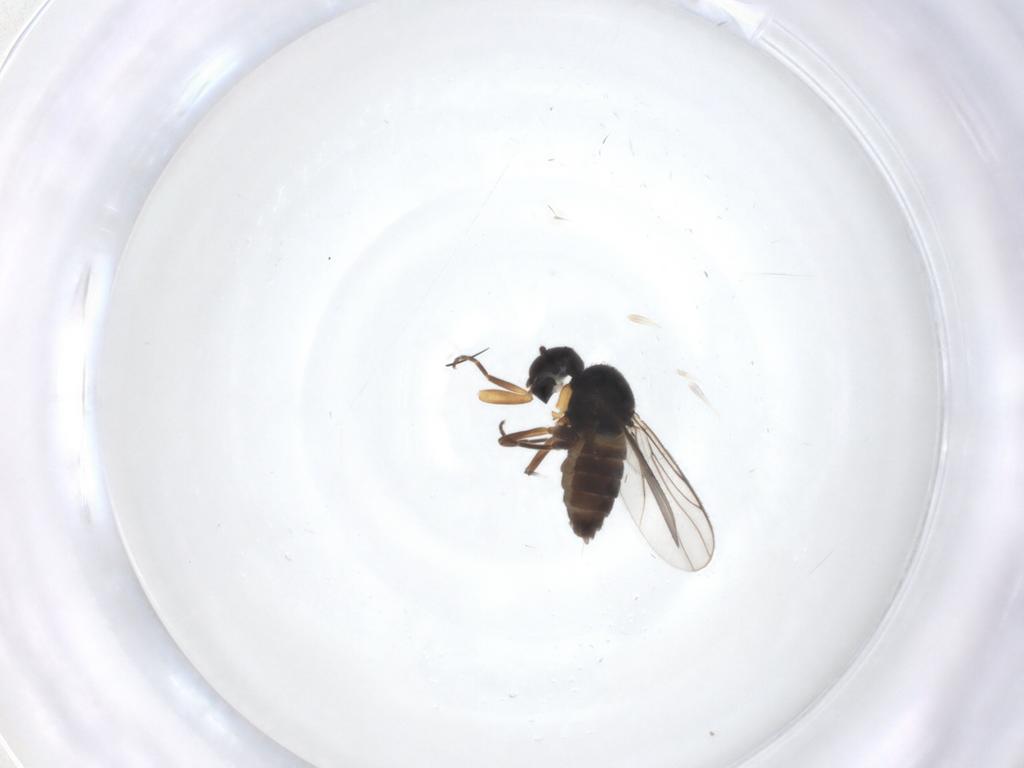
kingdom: Animalia
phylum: Arthropoda
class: Insecta
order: Diptera
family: Hybotidae
